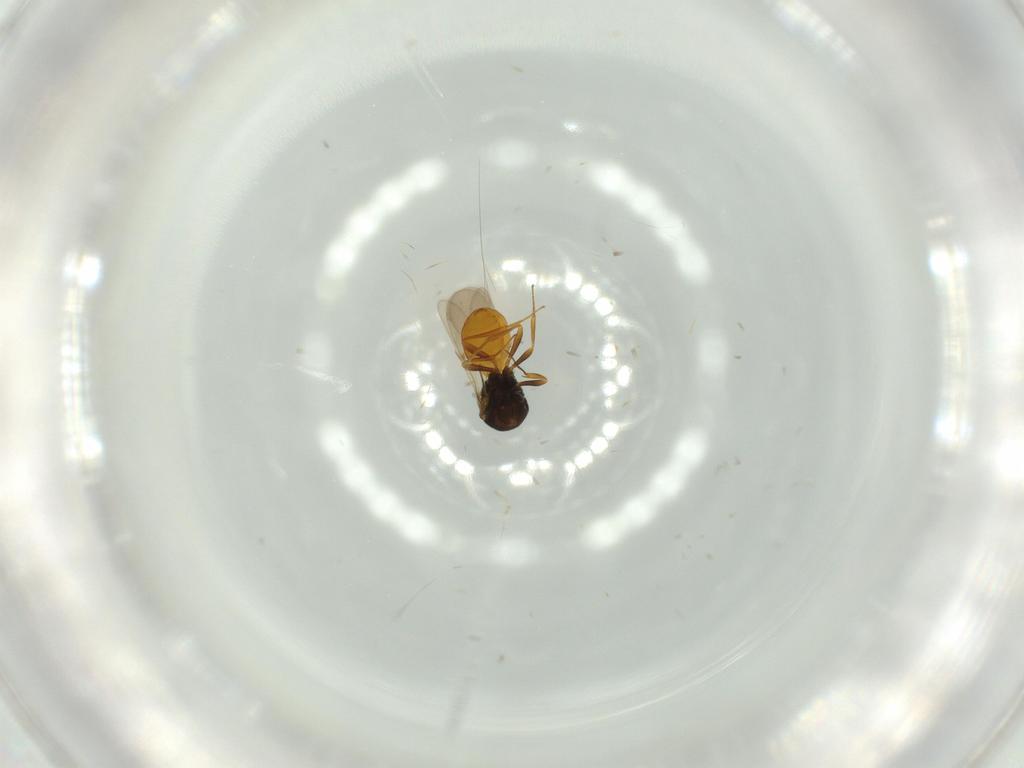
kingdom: Animalia
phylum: Arthropoda
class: Insecta
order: Hymenoptera
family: Scelionidae
